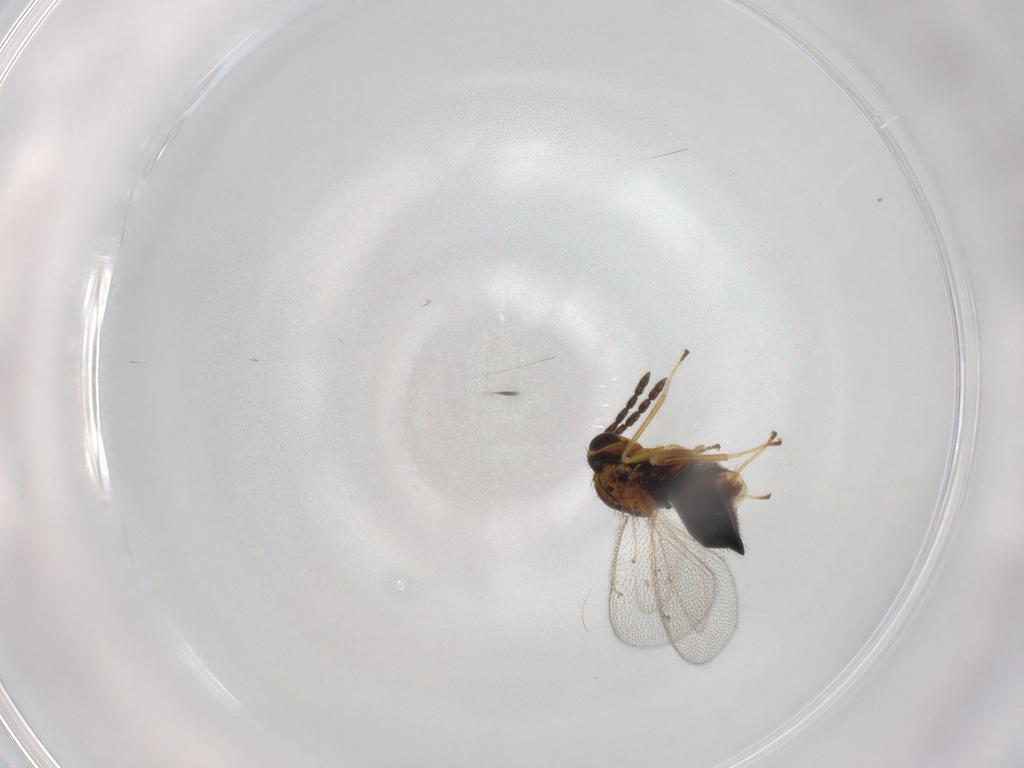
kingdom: Animalia
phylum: Arthropoda
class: Insecta
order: Hymenoptera
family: Eulophidae
